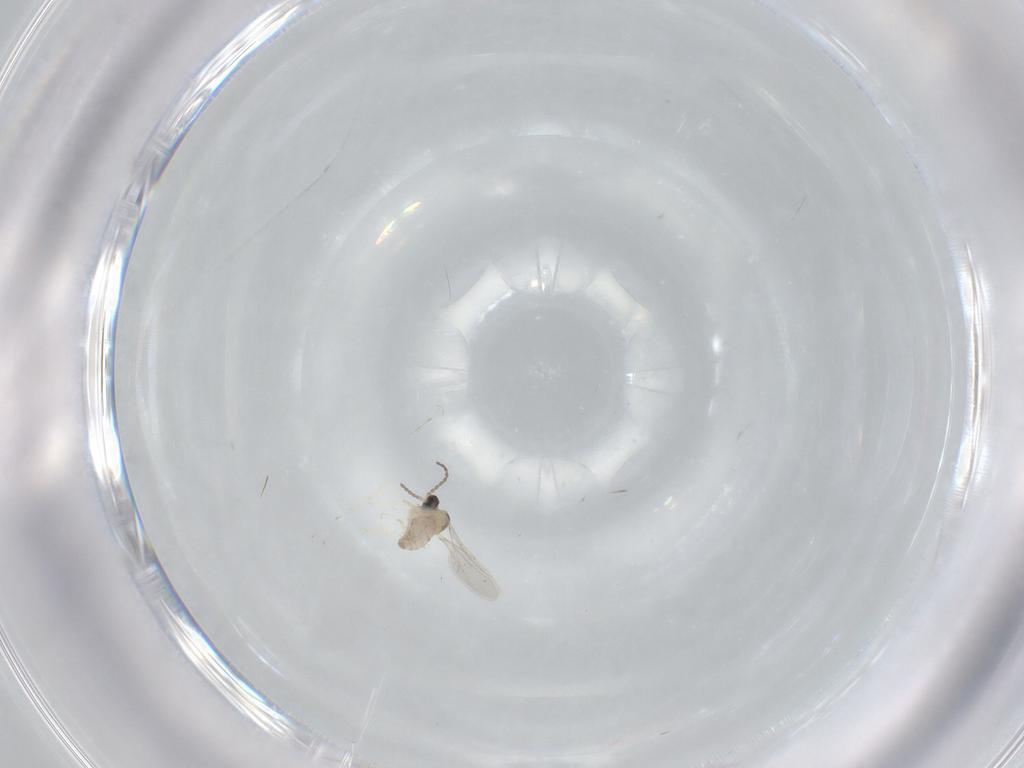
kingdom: Animalia
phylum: Arthropoda
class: Insecta
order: Diptera
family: Cecidomyiidae
